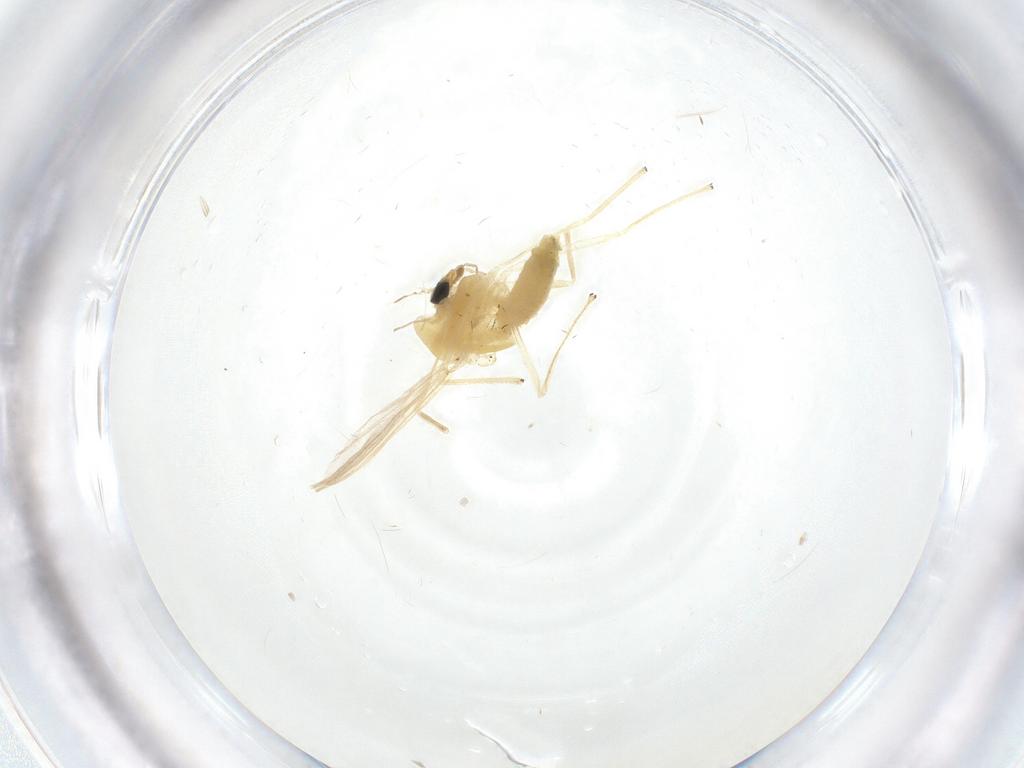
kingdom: Animalia
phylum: Arthropoda
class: Insecta
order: Diptera
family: Chironomidae
